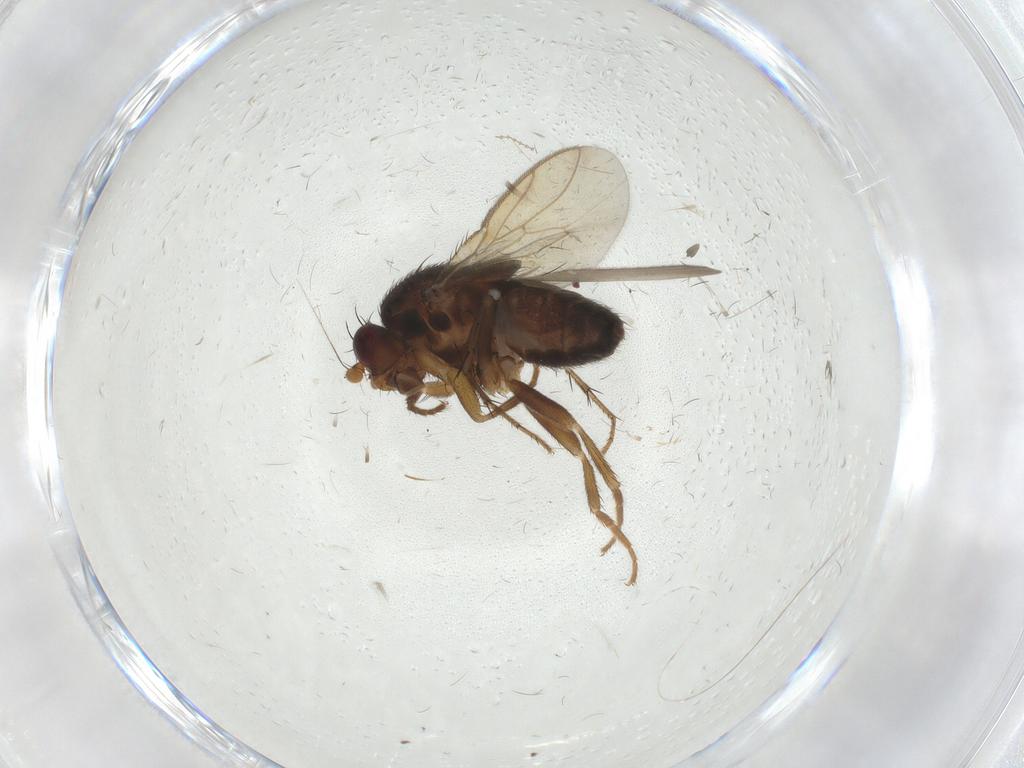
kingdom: Animalia
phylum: Arthropoda
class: Insecta
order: Diptera
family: Sphaeroceridae
